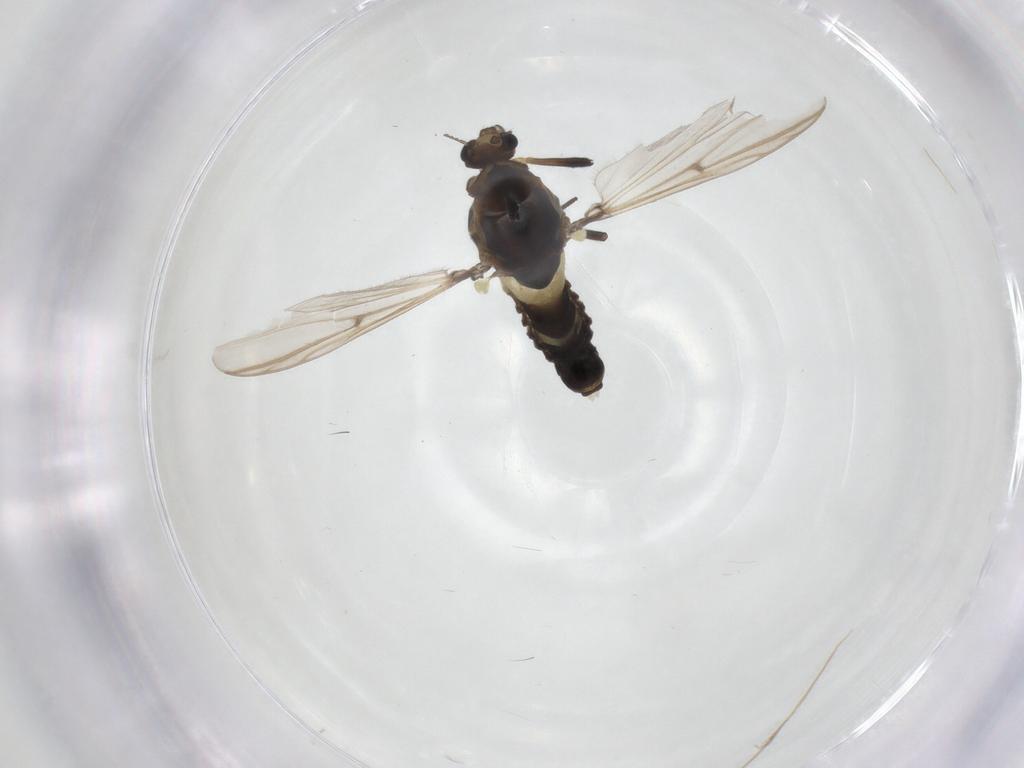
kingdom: Animalia
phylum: Arthropoda
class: Insecta
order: Diptera
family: Chironomidae
